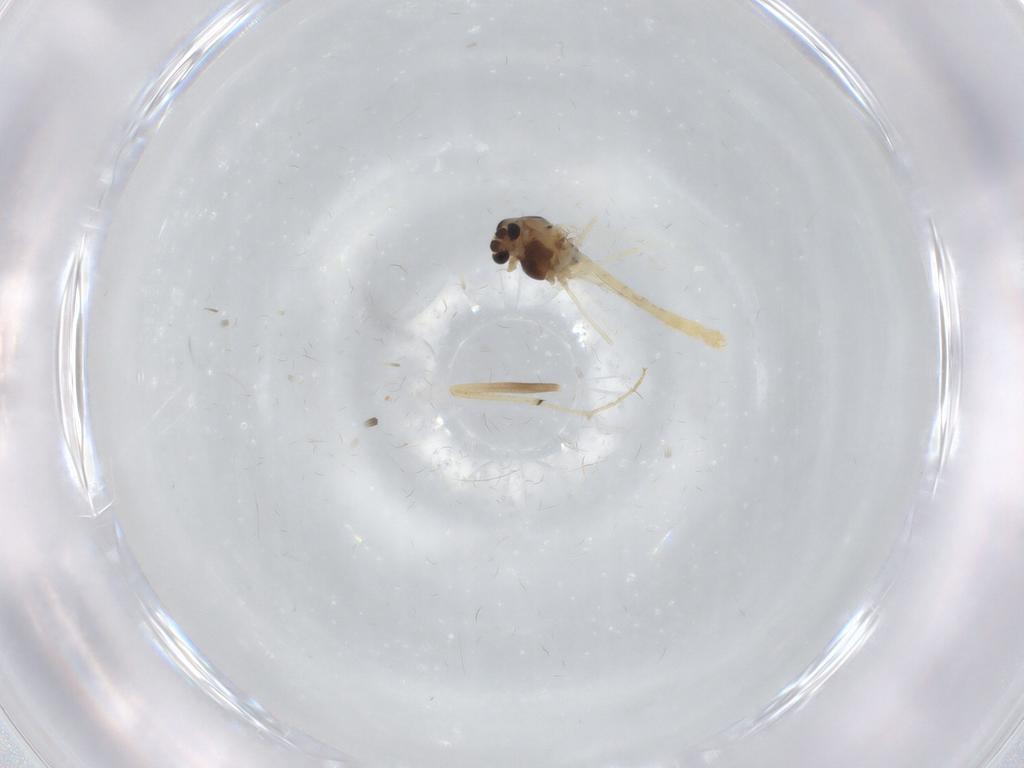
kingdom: Animalia
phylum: Arthropoda
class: Insecta
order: Diptera
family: Chironomidae
